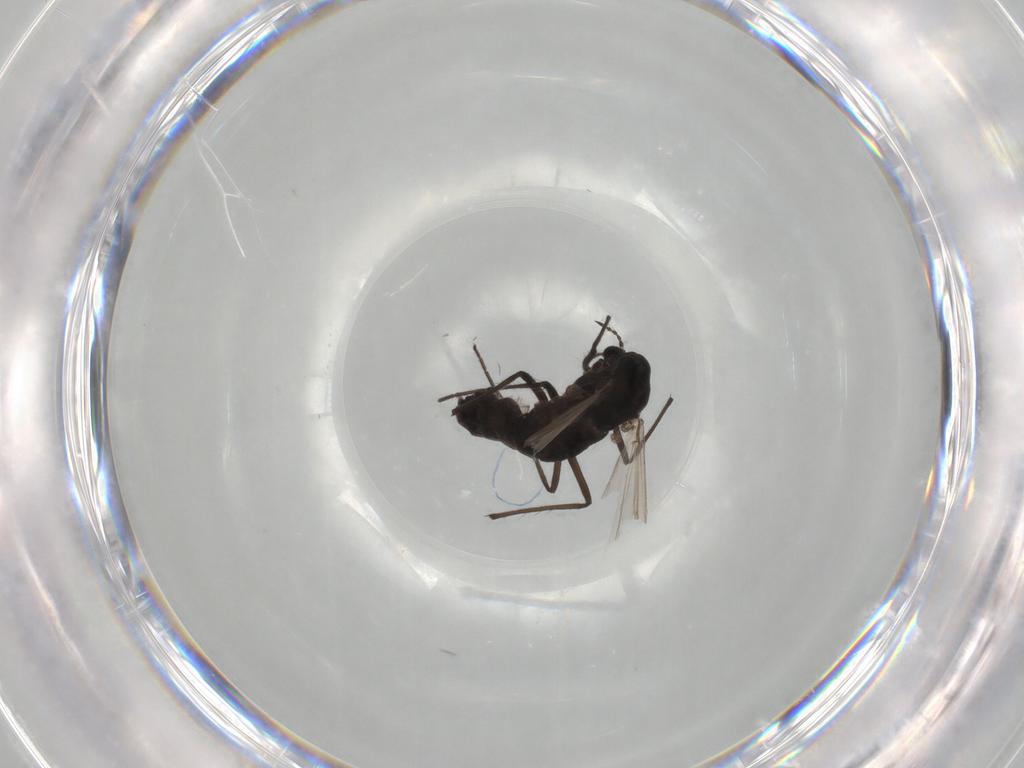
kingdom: Animalia
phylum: Arthropoda
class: Insecta
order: Diptera
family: Chironomidae
